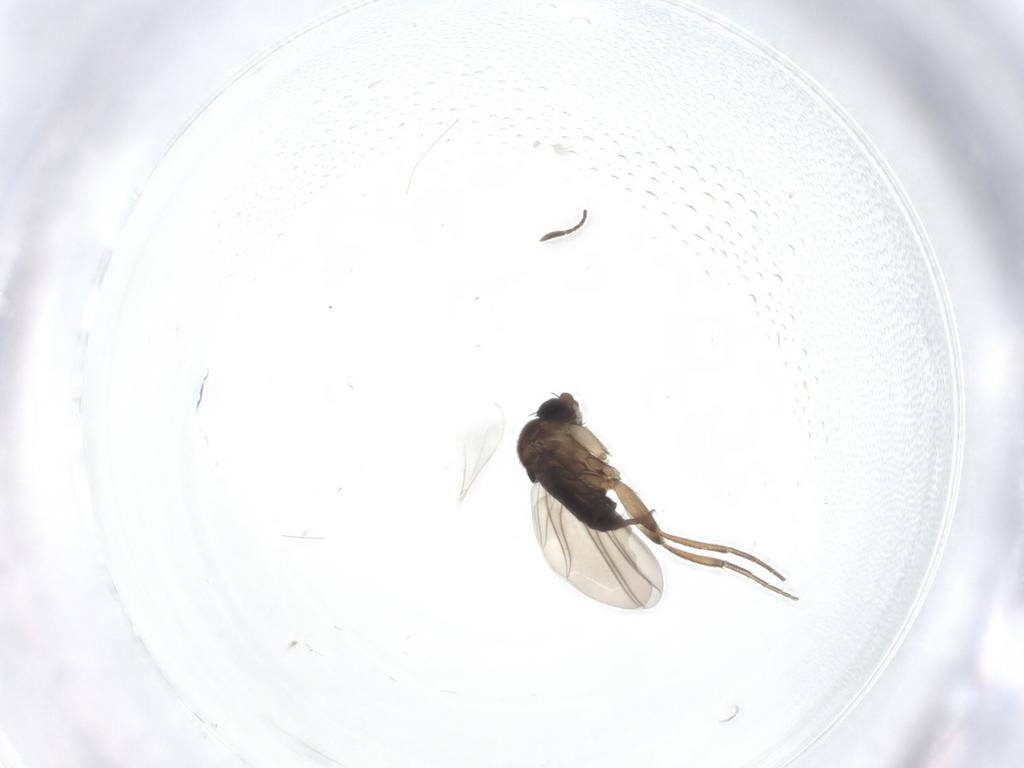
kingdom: Animalia
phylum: Arthropoda
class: Insecta
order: Diptera
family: Phoridae
